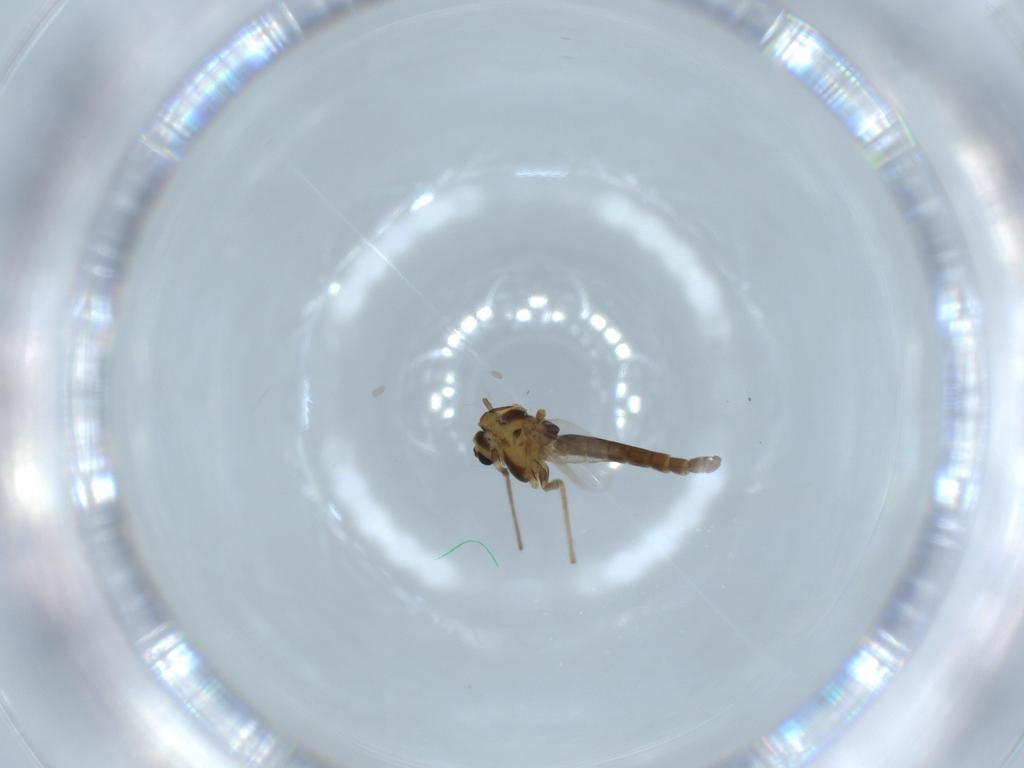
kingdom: Animalia
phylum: Arthropoda
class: Insecta
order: Diptera
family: Chironomidae
